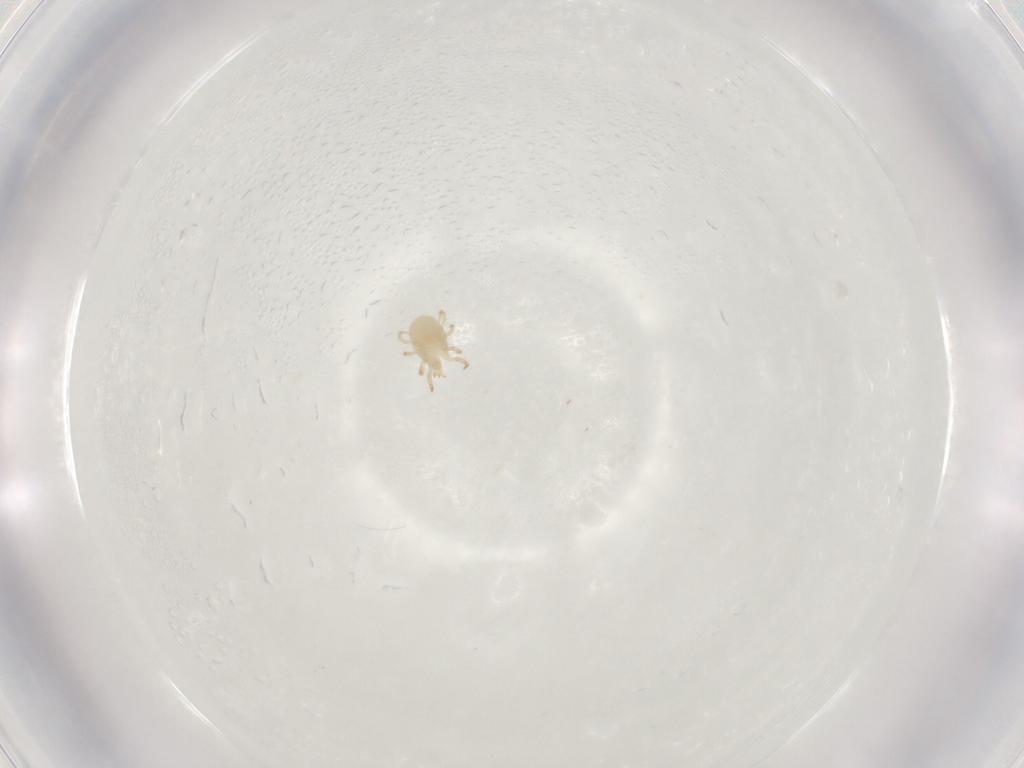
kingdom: Animalia
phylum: Arthropoda
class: Arachnida
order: Mesostigmata
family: Phytoseiidae
